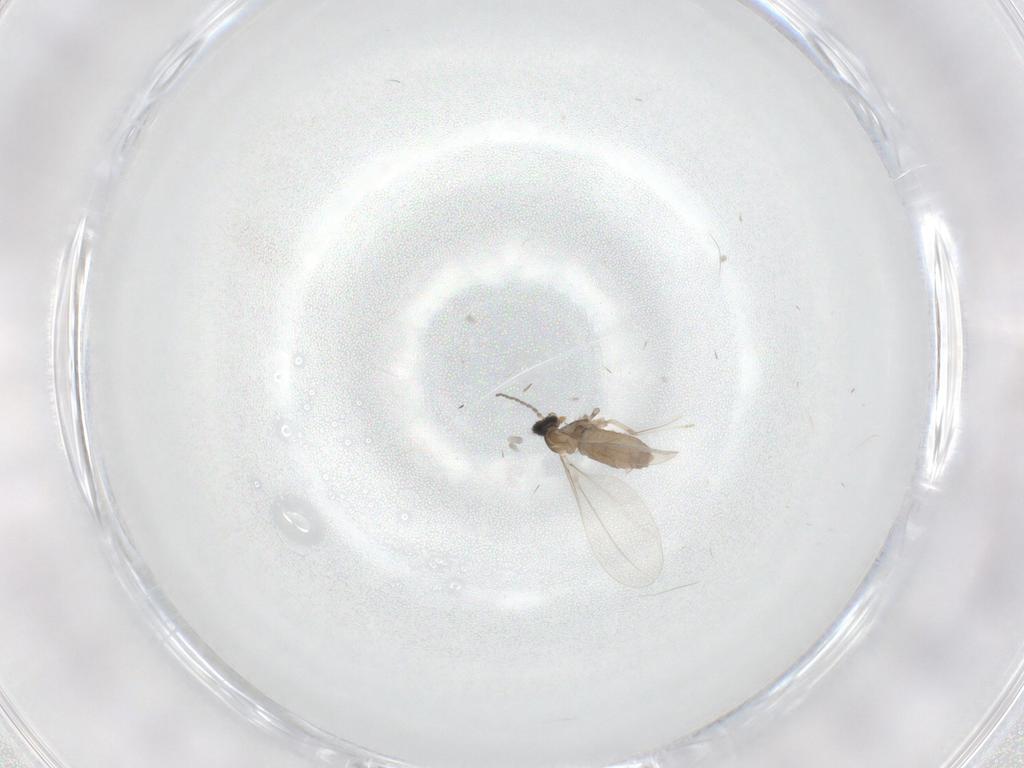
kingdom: Animalia
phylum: Arthropoda
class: Insecta
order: Diptera
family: Cecidomyiidae
